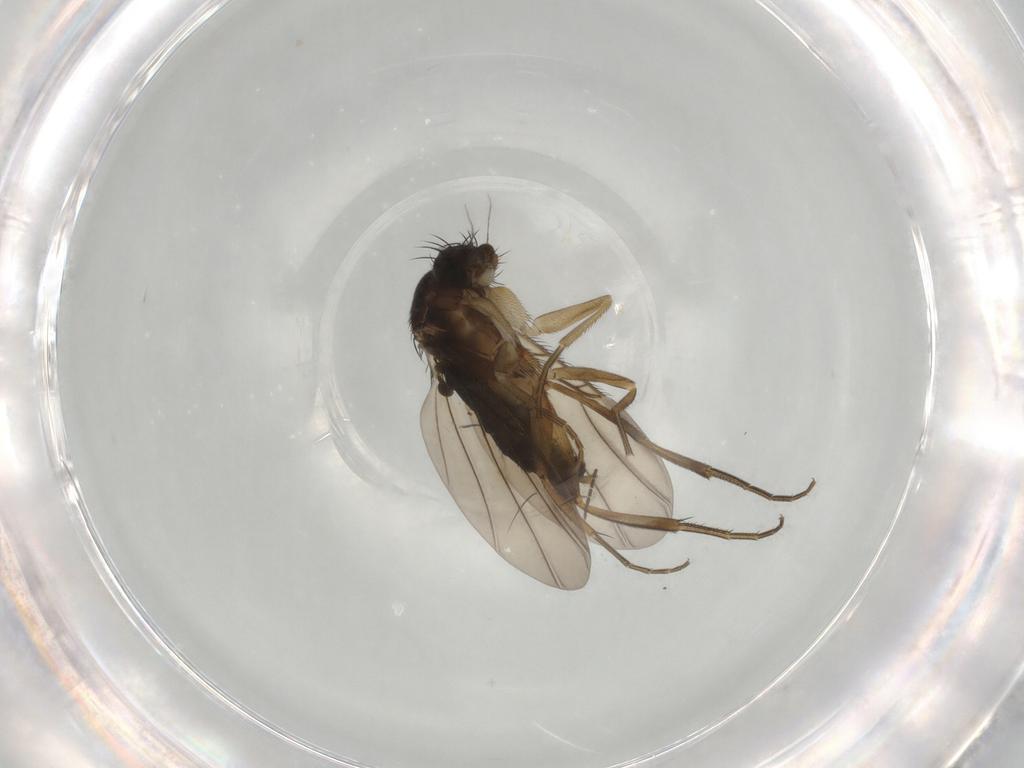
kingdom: Animalia
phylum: Arthropoda
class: Insecta
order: Diptera
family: Phoridae
